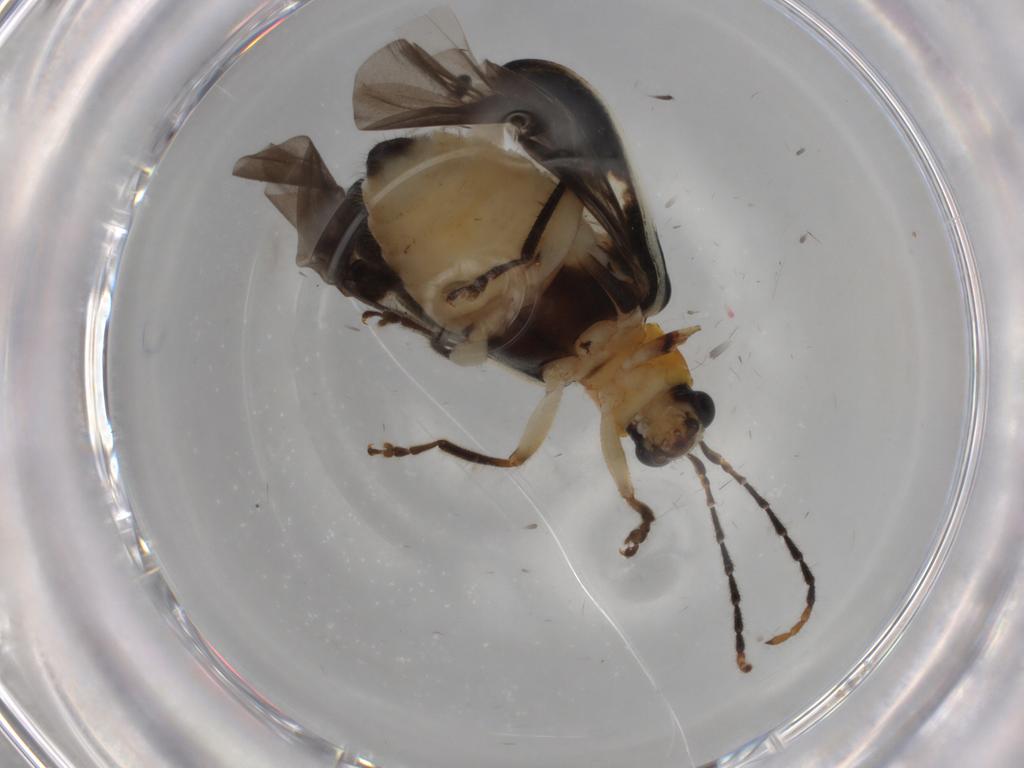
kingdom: Animalia
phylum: Arthropoda
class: Insecta
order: Coleoptera
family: Chrysomelidae
